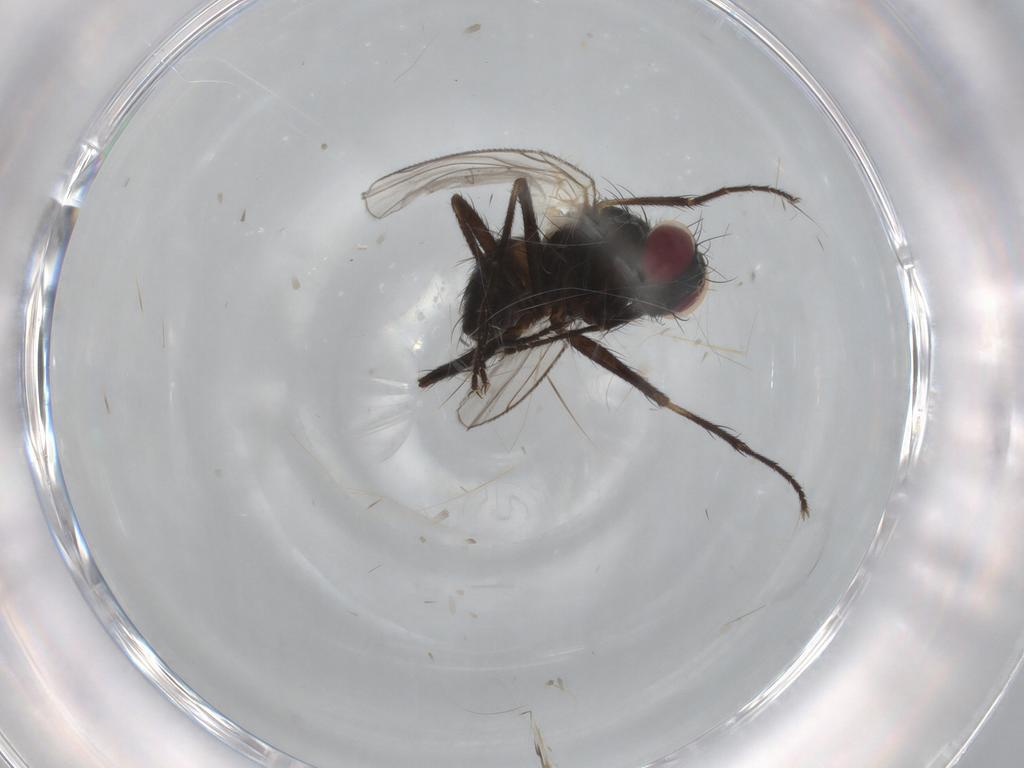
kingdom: Animalia
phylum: Arthropoda
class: Insecta
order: Diptera
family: Muscidae
